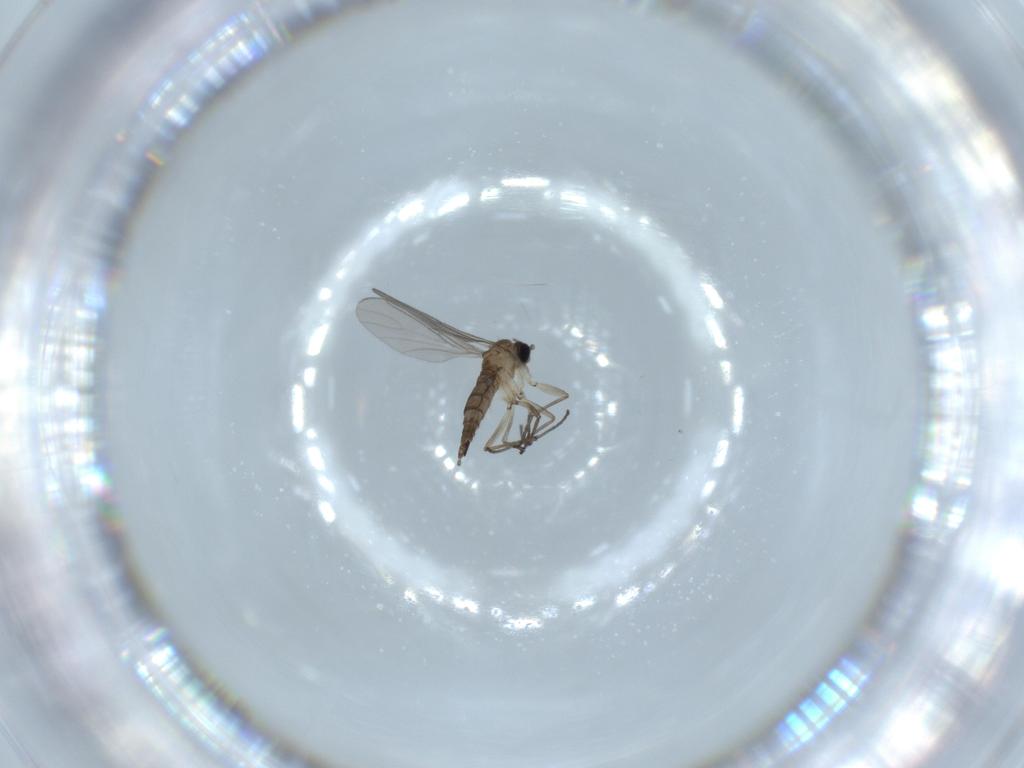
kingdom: Animalia
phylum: Arthropoda
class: Insecta
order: Diptera
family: Sciaridae
